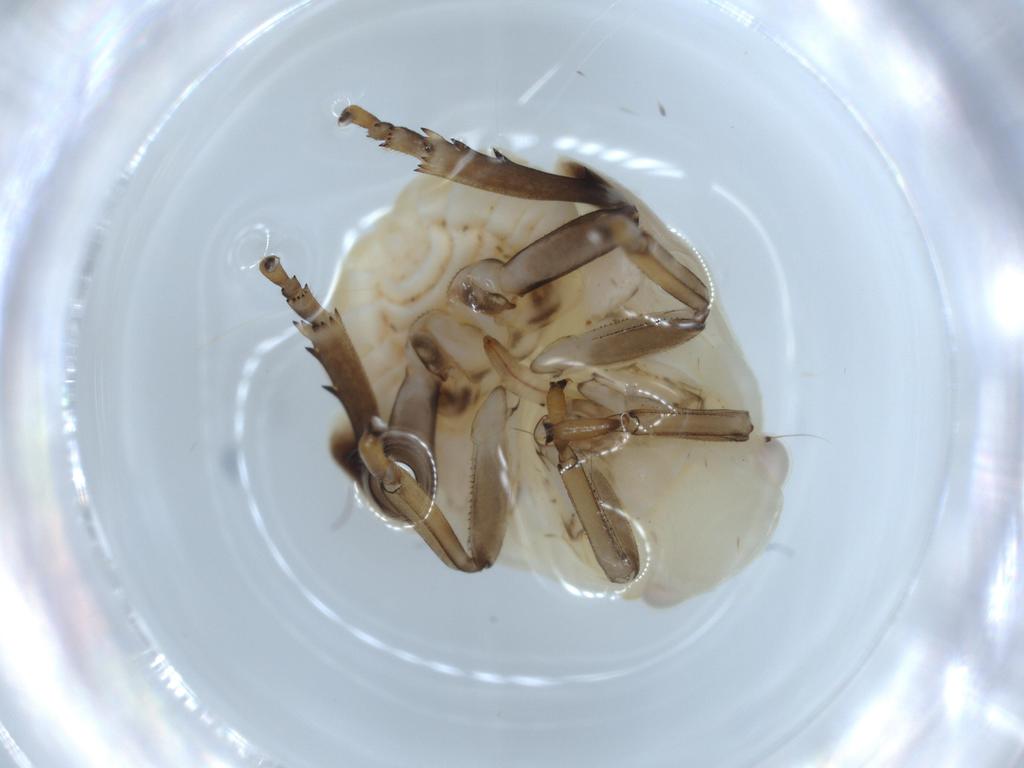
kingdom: Animalia
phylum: Arthropoda
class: Insecta
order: Hemiptera
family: Flatidae
